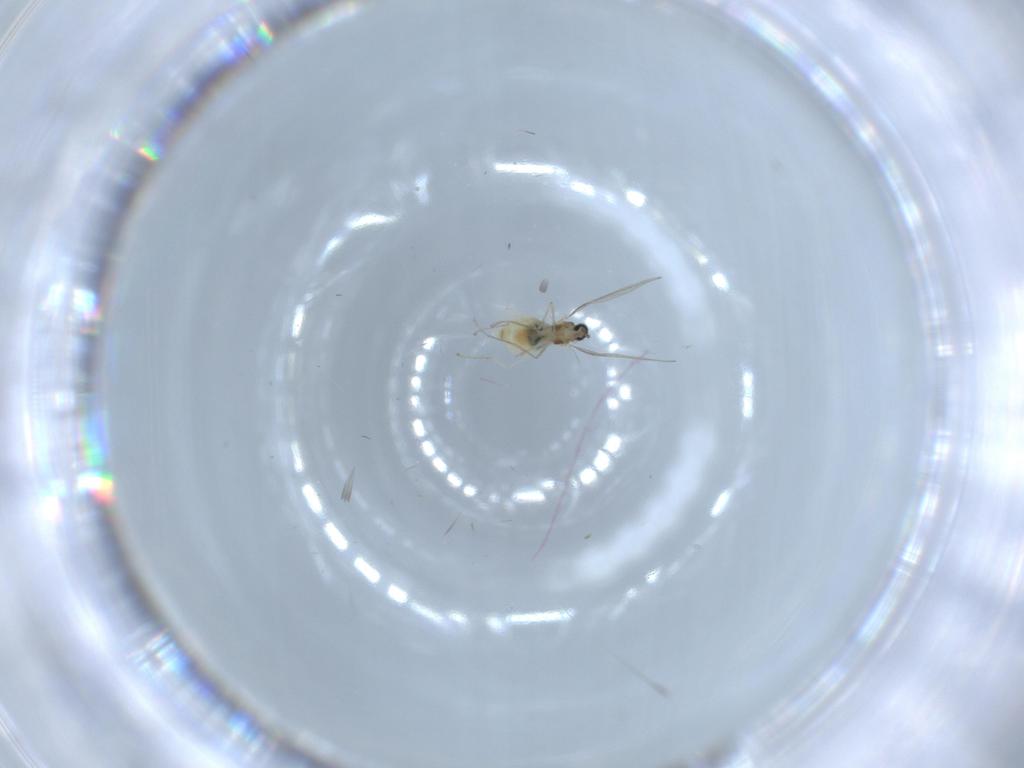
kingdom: Animalia
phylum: Arthropoda
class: Insecta
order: Diptera
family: Cecidomyiidae
